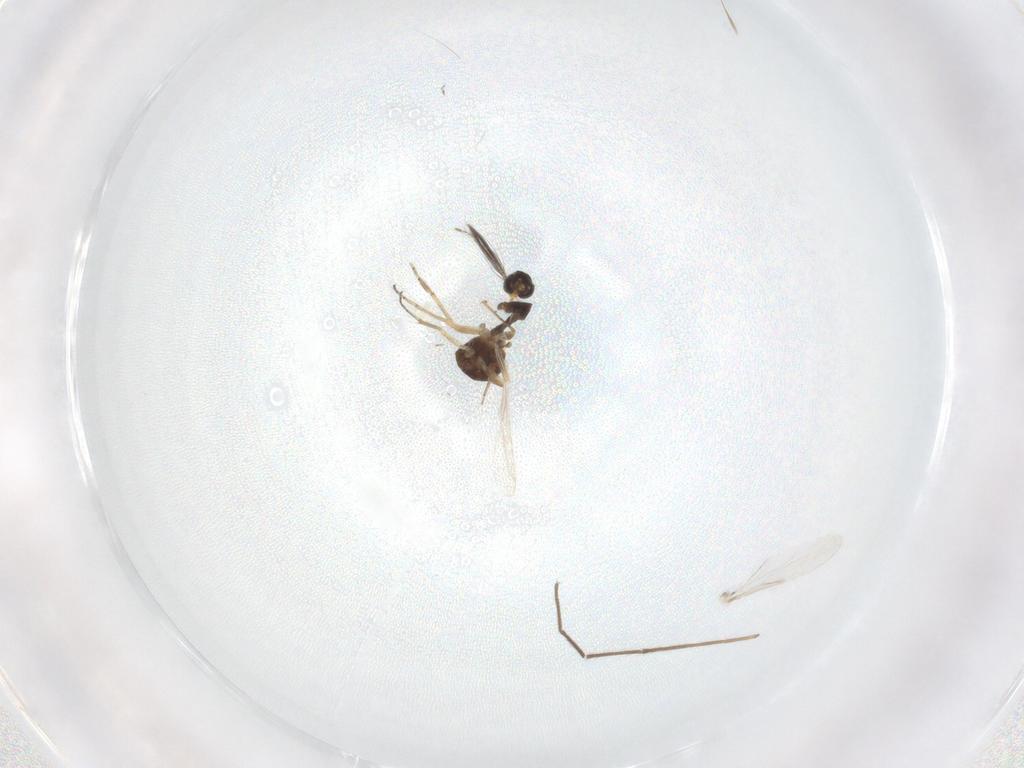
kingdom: Animalia
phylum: Arthropoda
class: Insecta
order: Diptera
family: Ceratopogonidae
